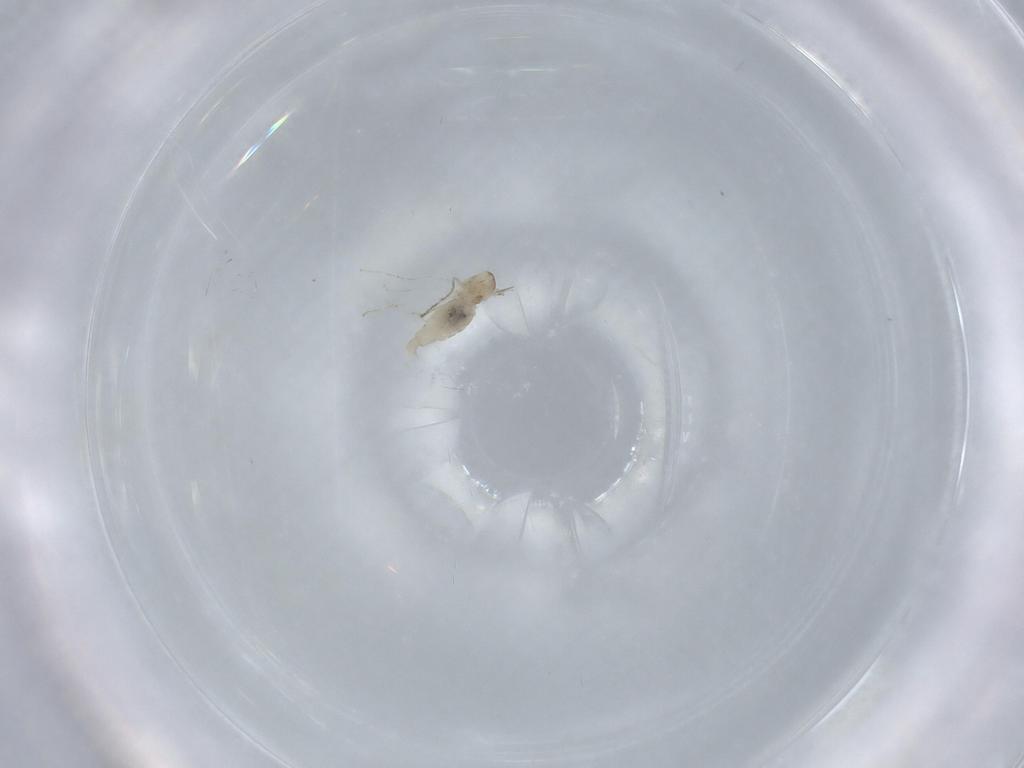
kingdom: Animalia
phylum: Arthropoda
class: Insecta
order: Diptera
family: Cecidomyiidae
